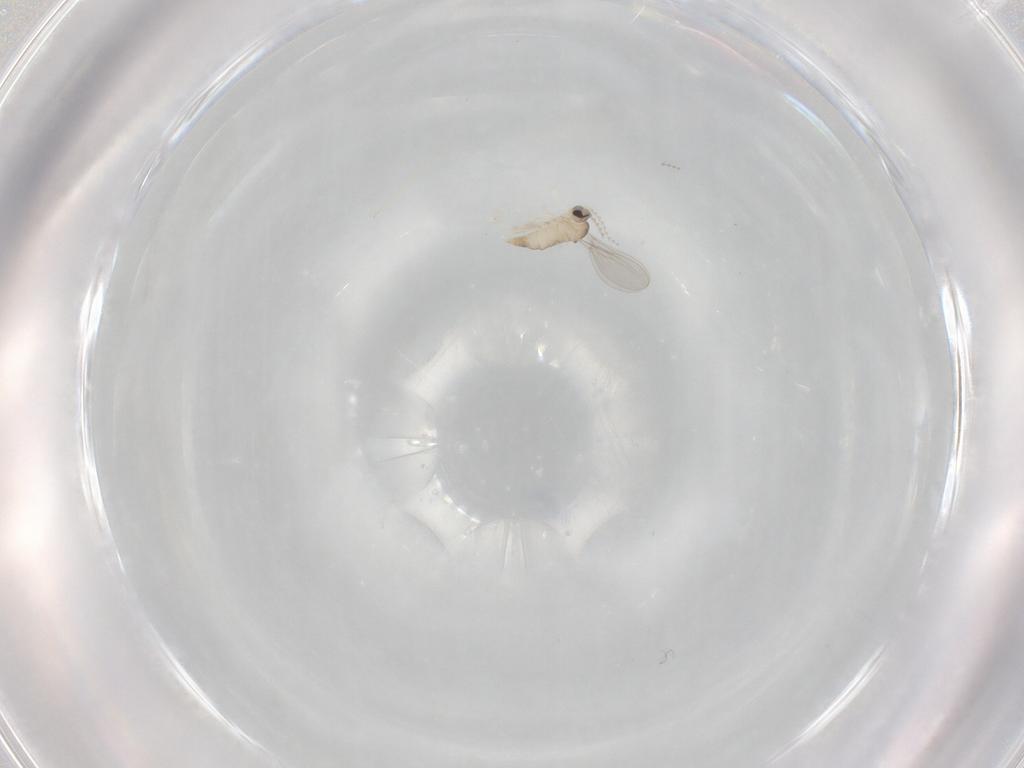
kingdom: Animalia
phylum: Arthropoda
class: Insecta
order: Diptera
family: Cecidomyiidae
